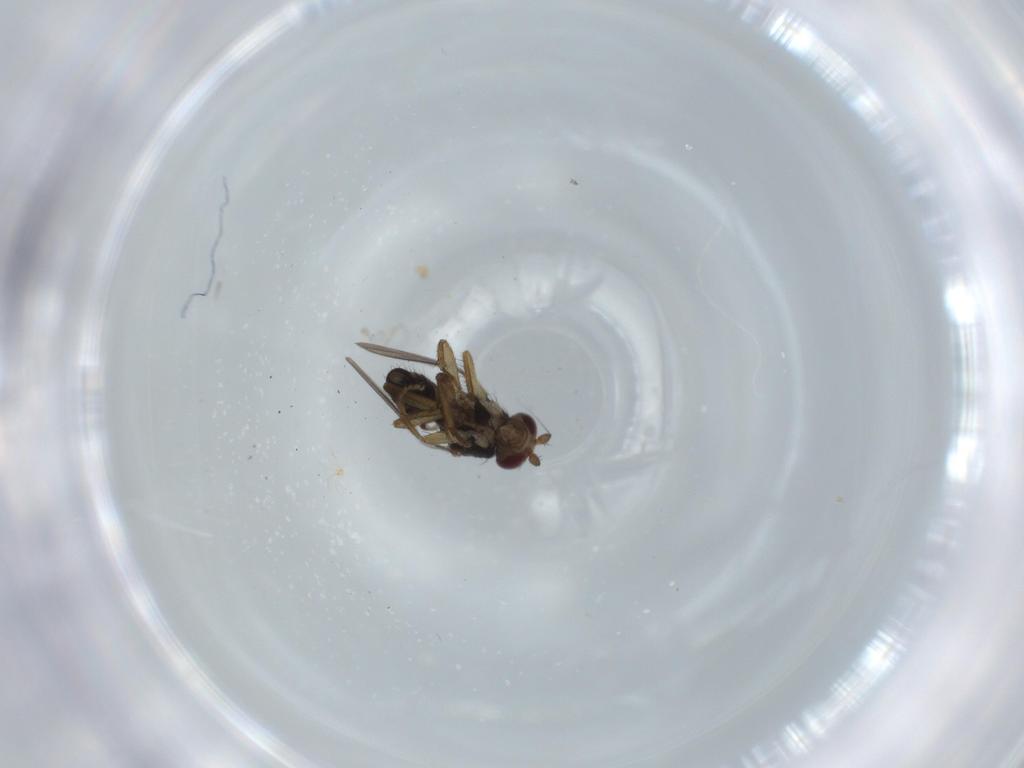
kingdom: Animalia
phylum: Arthropoda
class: Insecta
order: Diptera
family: Sphaeroceridae
